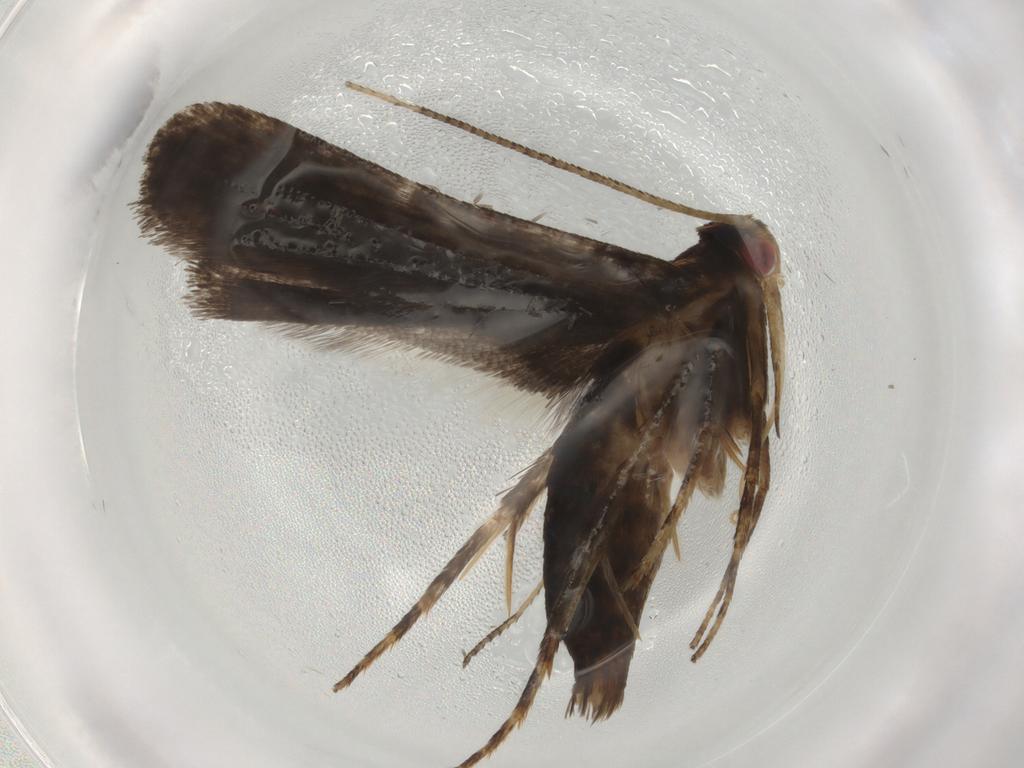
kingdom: Animalia
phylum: Arthropoda
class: Insecta
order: Lepidoptera
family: Gelechiidae
